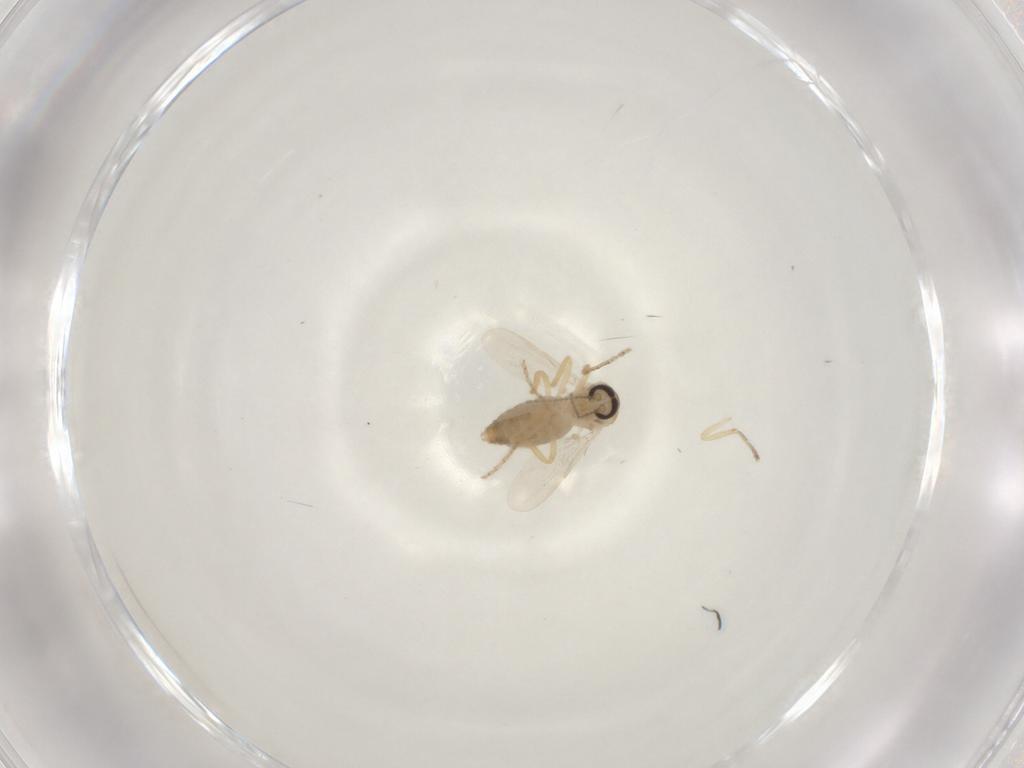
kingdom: Animalia
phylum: Arthropoda
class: Insecta
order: Diptera
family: Ceratopogonidae
